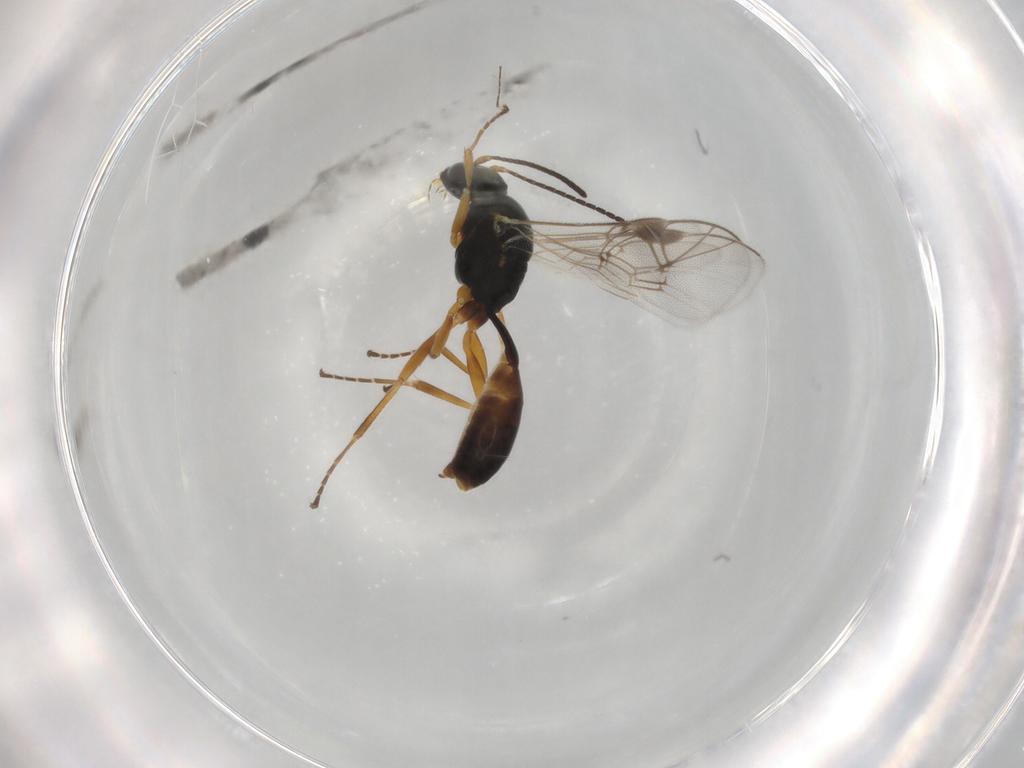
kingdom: Animalia
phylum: Arthropoda
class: Insecta
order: Hymenoptera
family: Ichneumonidae
